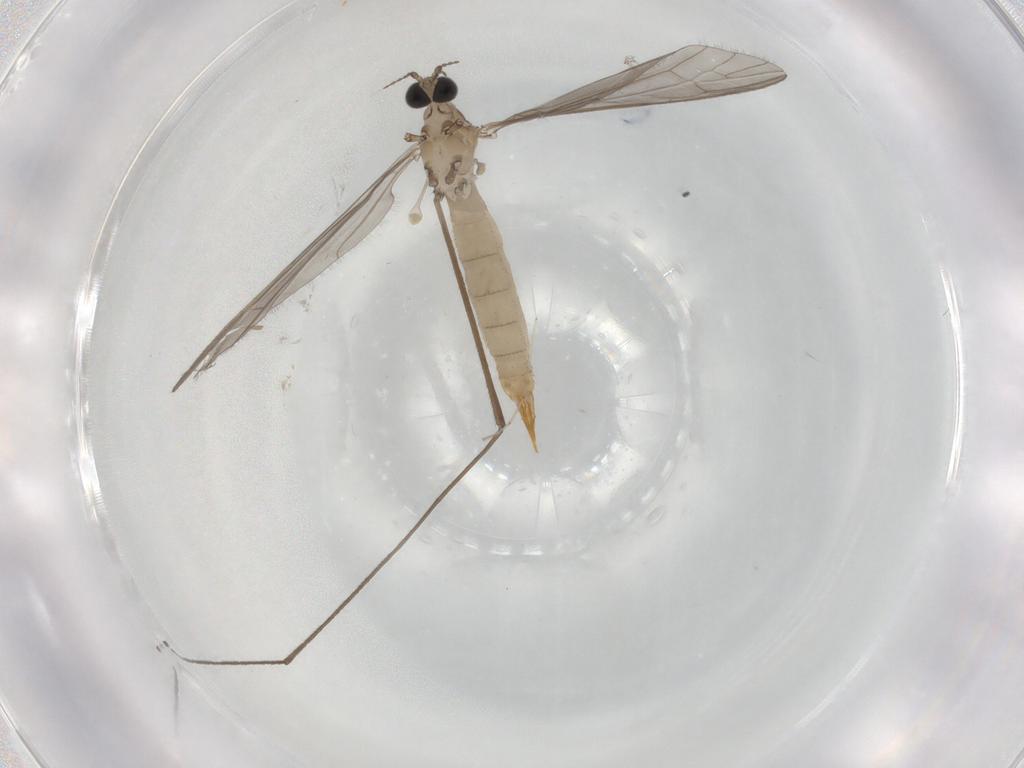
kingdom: Animalia
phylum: Arthropoda
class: Insecta
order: Diptera
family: Limoniidae
